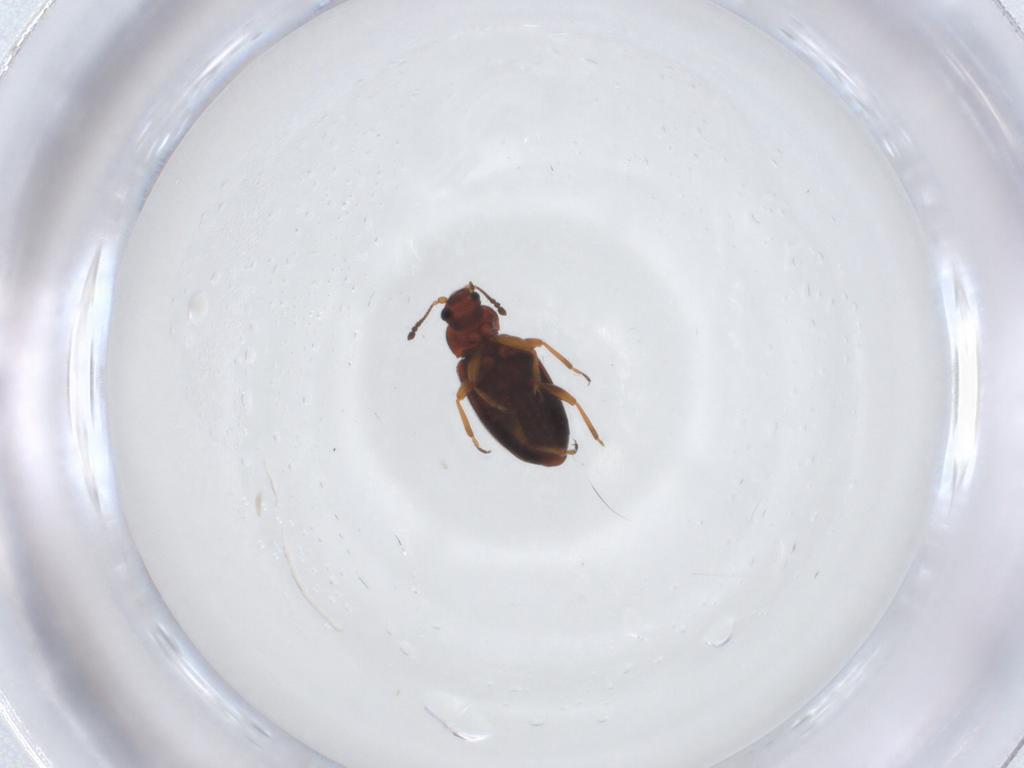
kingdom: Animalia
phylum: Arthropoda
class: Insecta
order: Coleoptera
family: Latridiidae
